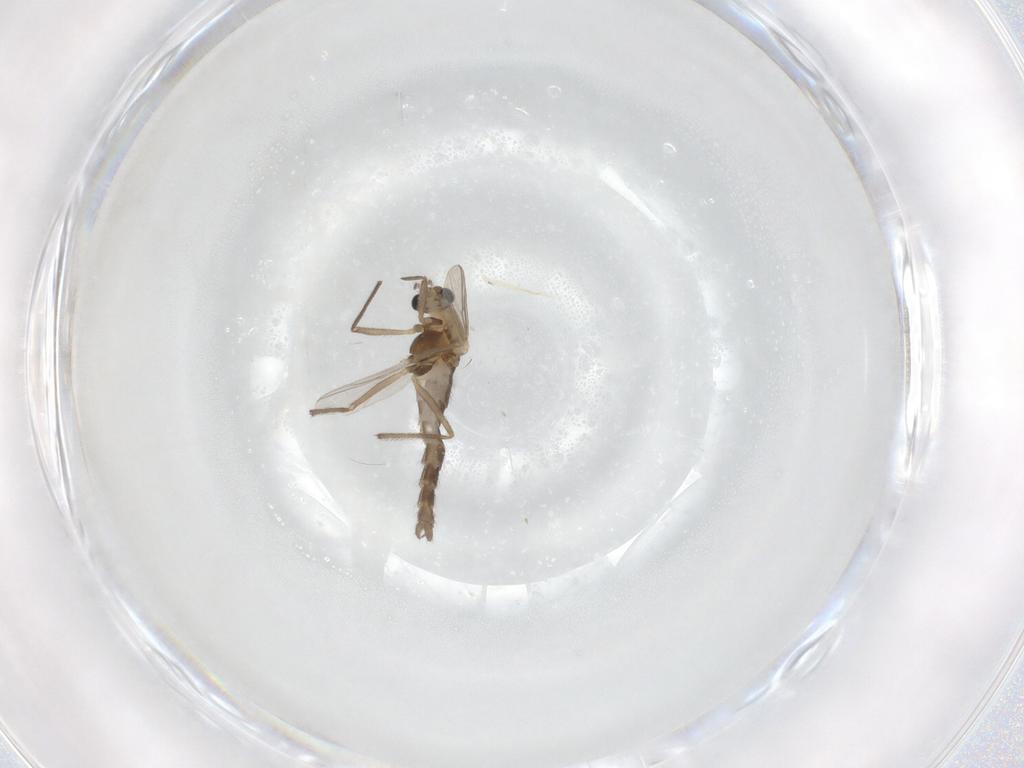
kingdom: Animalia
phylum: Arthropoda
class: Insecta
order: Diptera
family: Chironomidae
